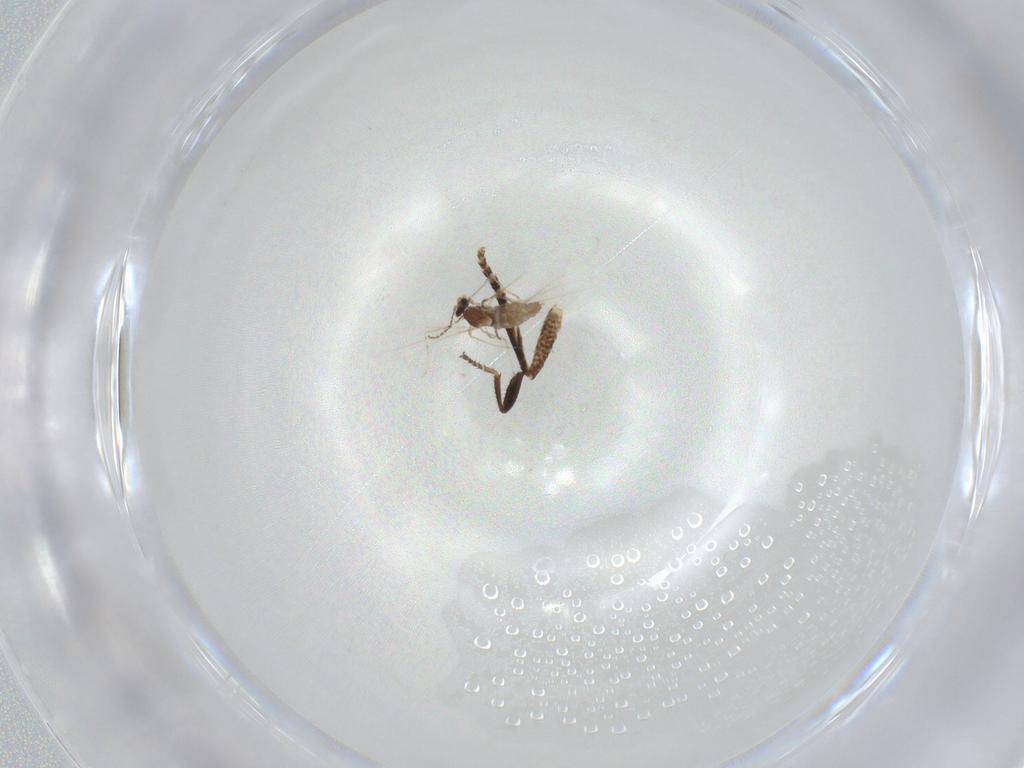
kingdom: Animalia
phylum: Arthropoda
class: Insecta
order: Diptera
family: Milichiidae
